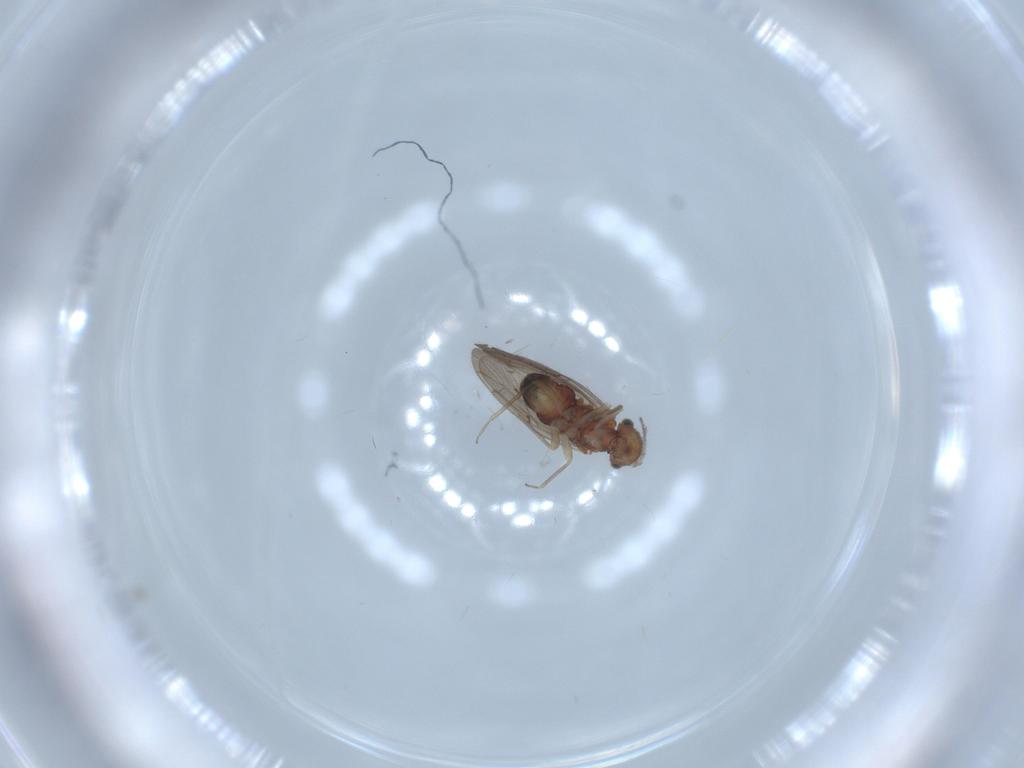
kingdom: Animalia
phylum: Arthropoda
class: Insecta
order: Psocodea
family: Ectopsocidae
